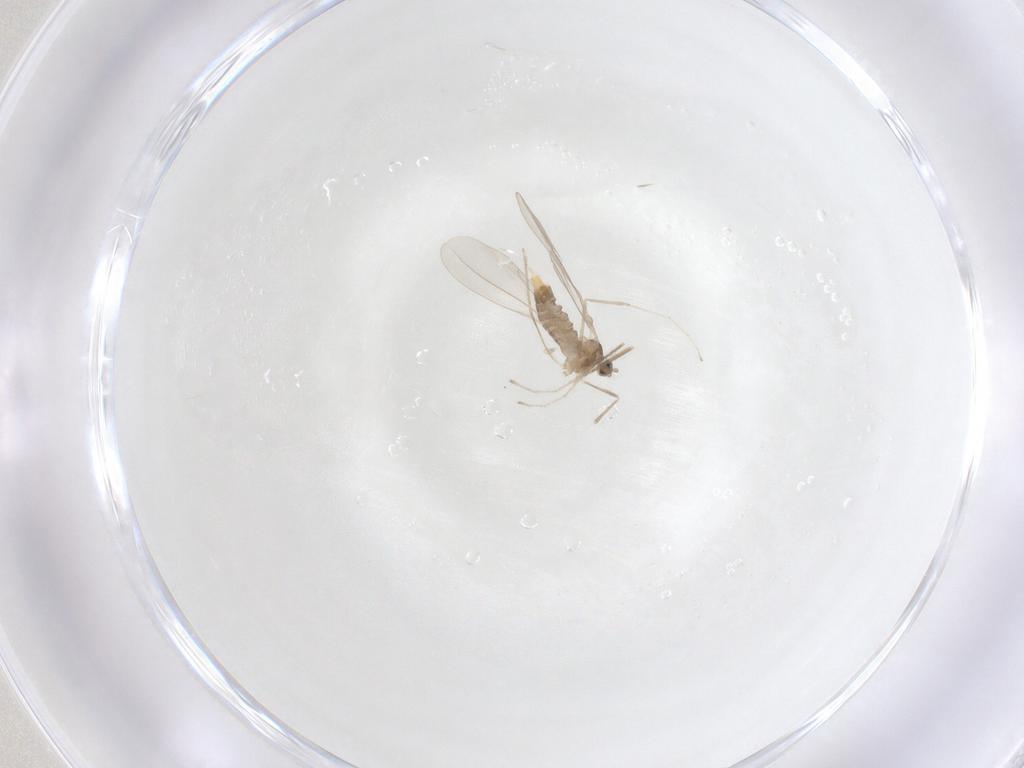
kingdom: Animalia
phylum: Arthropoda
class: Insecta
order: Diptera
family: Cecidomyiidae
